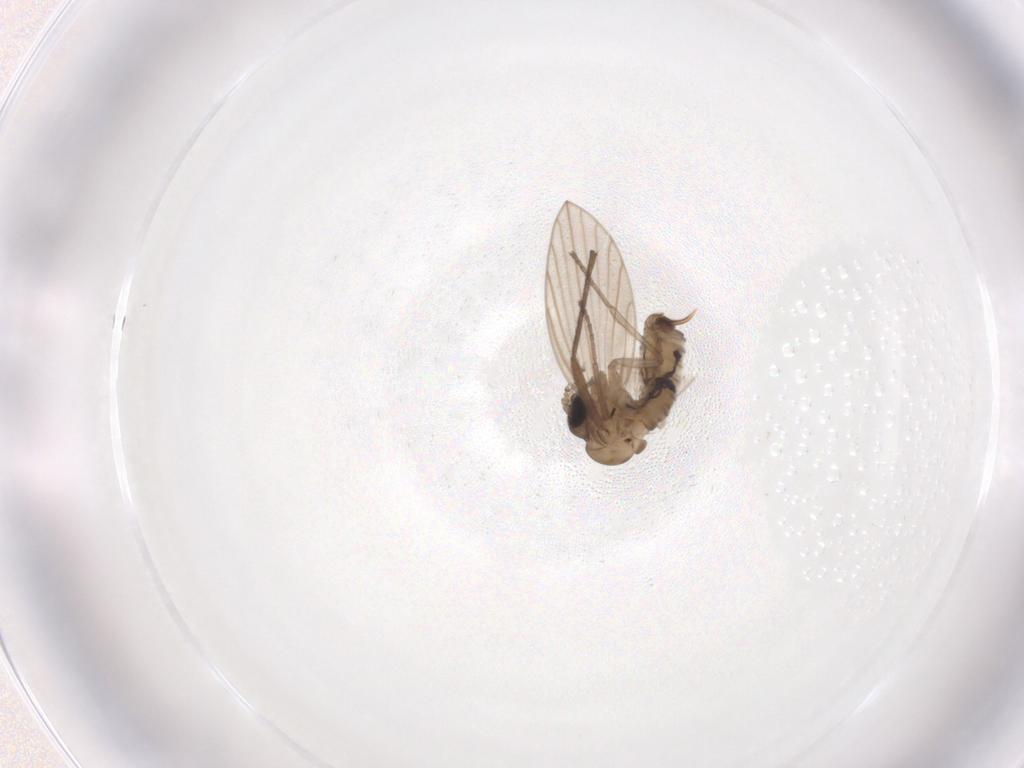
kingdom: Animalia
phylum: Arthropoda
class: Insecta
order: Diptera
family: Sciaridae
